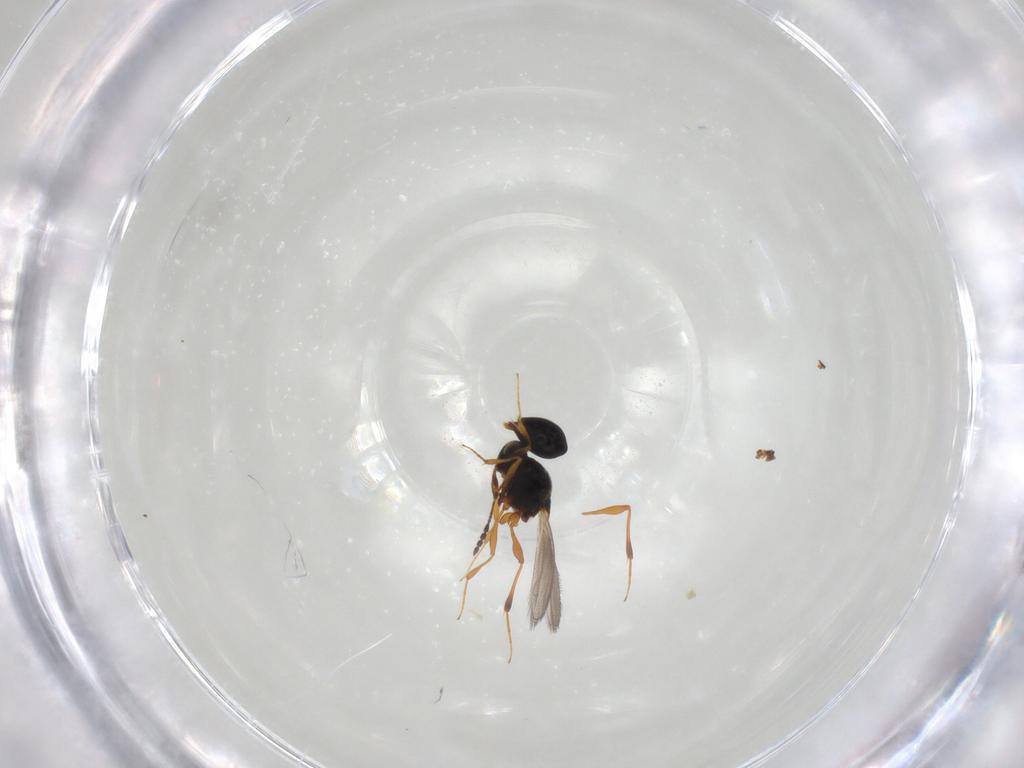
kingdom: Animalia
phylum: Arthropoda
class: Insecta
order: Hymenoptera
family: Platygastridae
